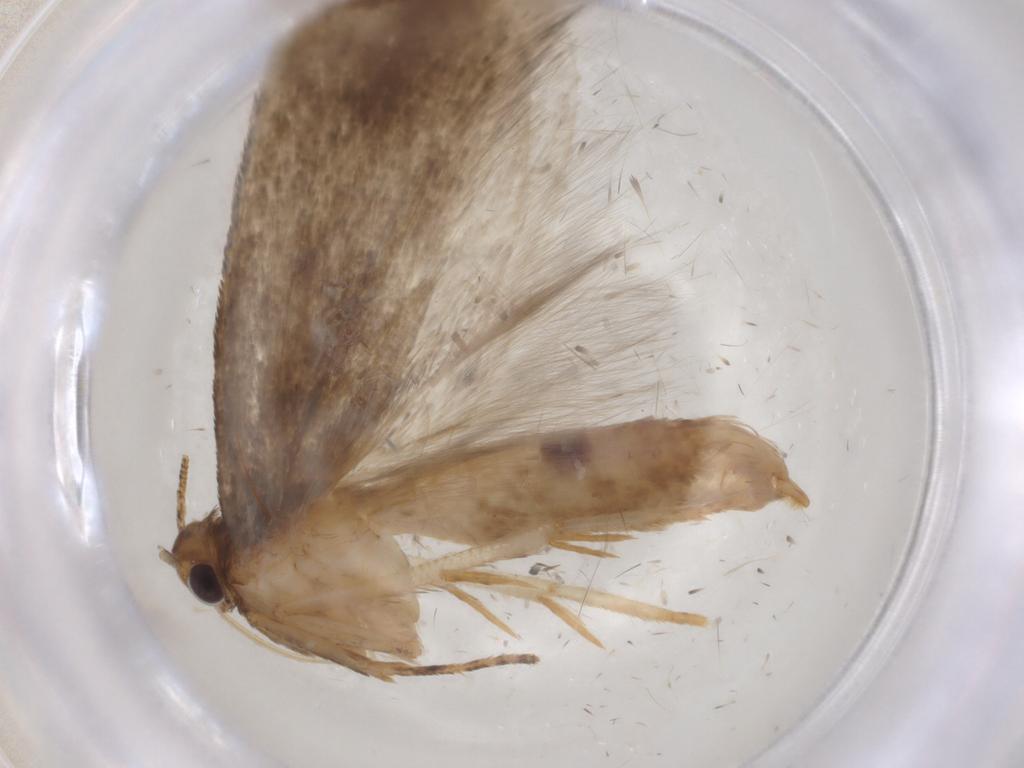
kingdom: Animalia
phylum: Arthropoda
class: Insecta
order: Lepidoptera
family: Gelechiidae
